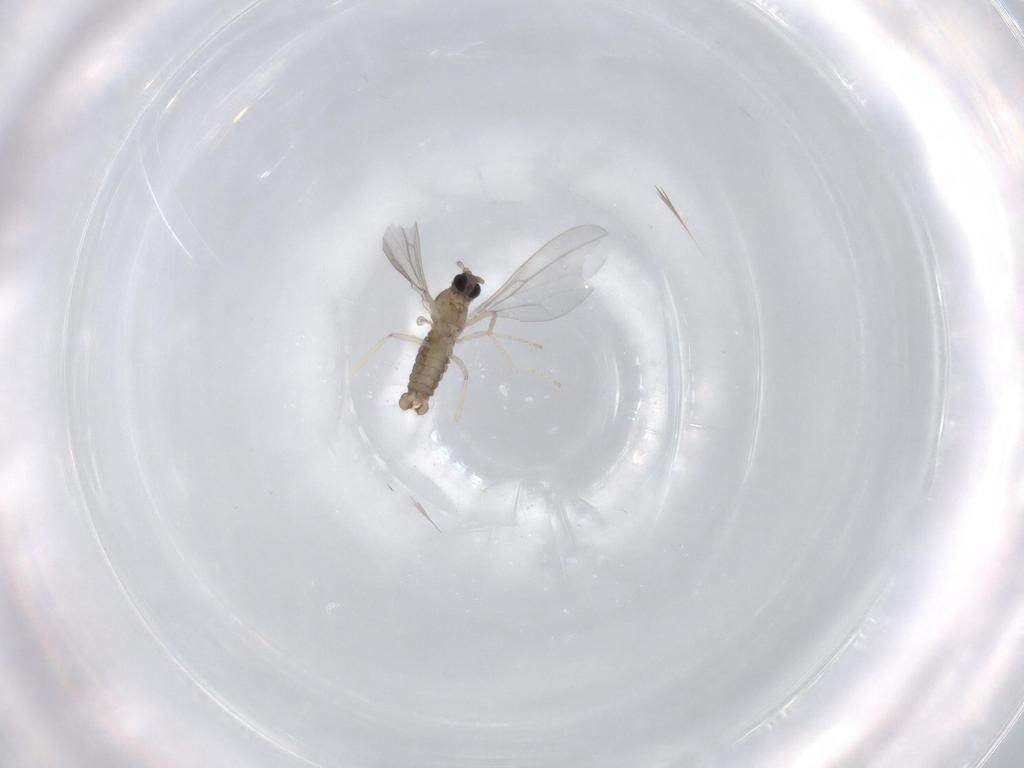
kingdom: Animalia
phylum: Arthropoda
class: Insecta
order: Diptera
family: Cecidomyiidae
